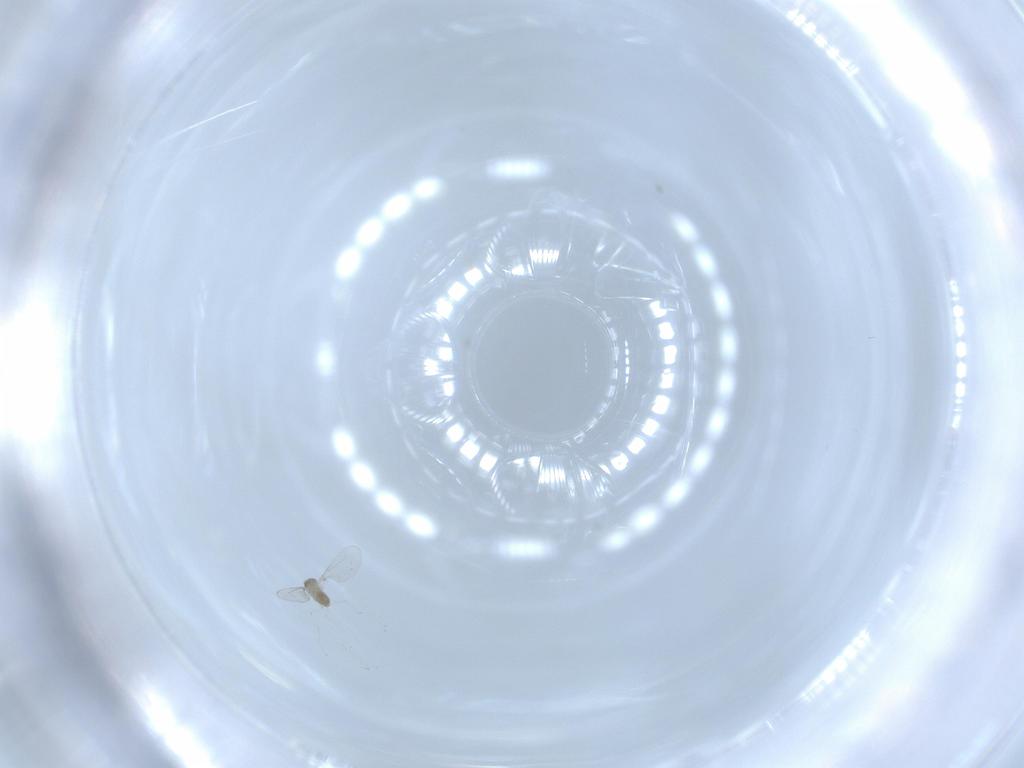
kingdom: Animalia
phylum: Arthropoda
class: Insecta
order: Diptera
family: Cecidomyiidae
